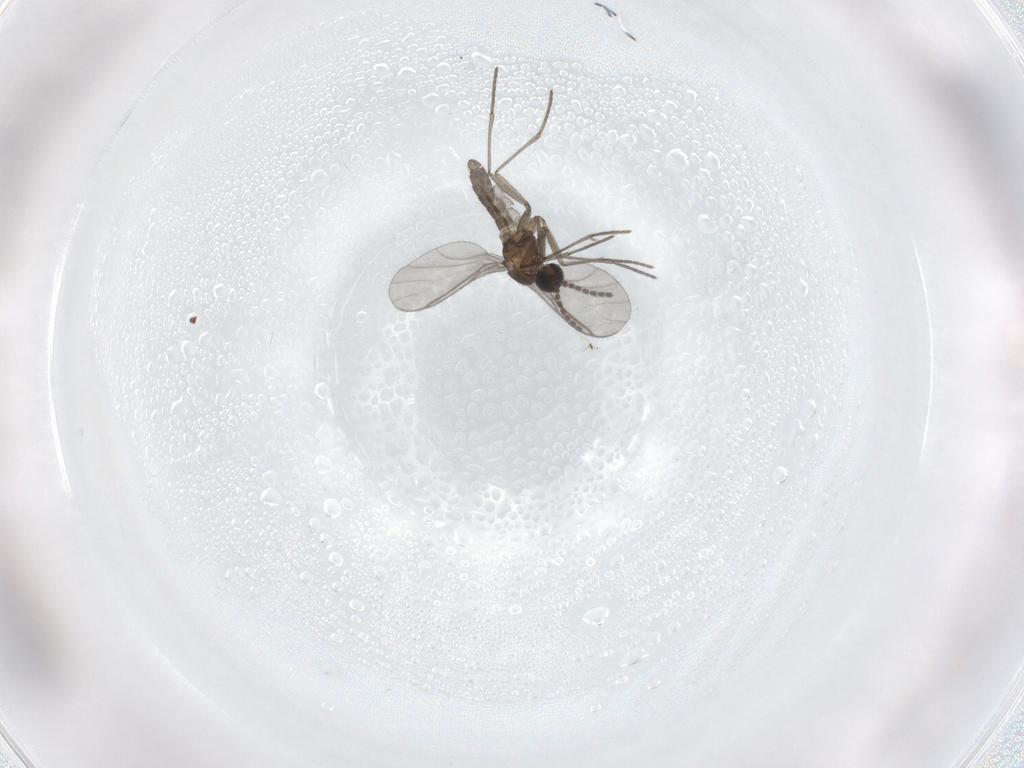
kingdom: Animalia
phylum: Arthropoda
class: Insecta
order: Diptera
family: Sciaridae
